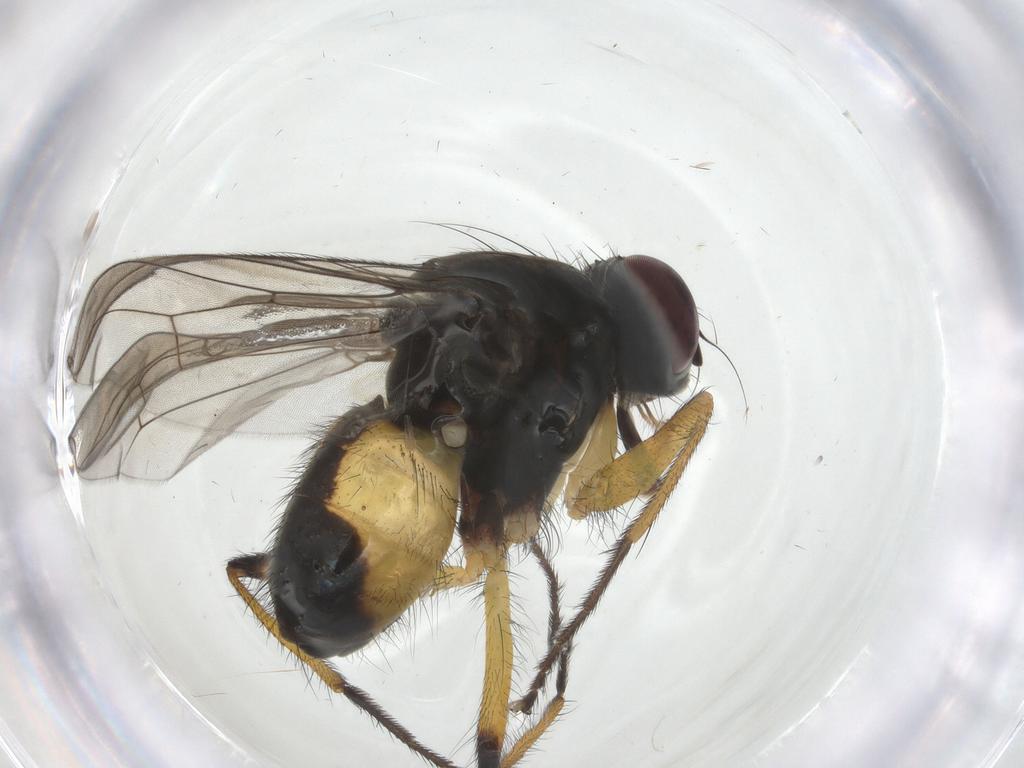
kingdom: Animalia
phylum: Arthropoda
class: Insecta
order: Diptera
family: Muscidae
